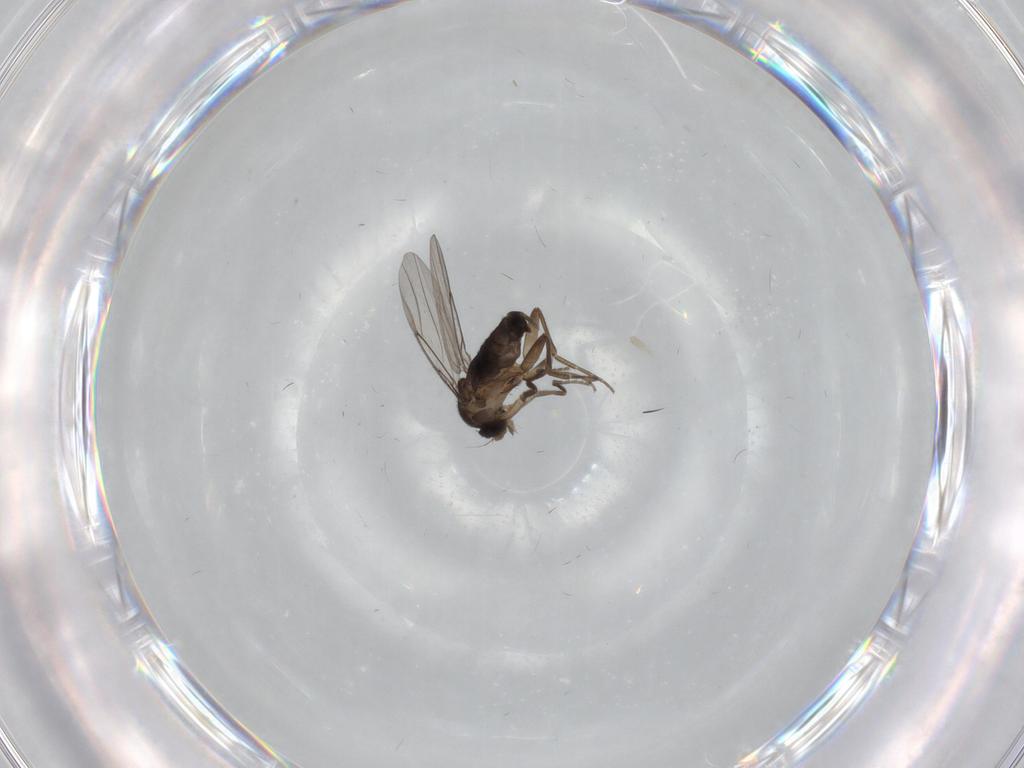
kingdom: Animalia
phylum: Arthropoda
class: Insecta
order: Diptera
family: Phoridae
